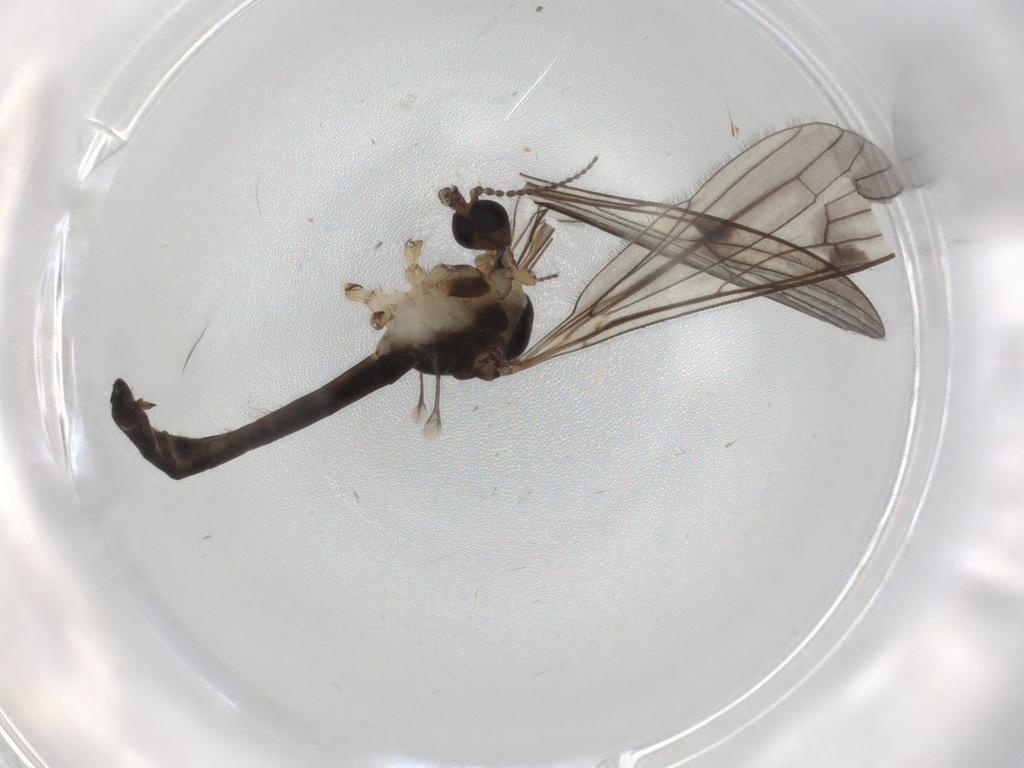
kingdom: Animalia
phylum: Arthropoda
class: Insecta
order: Diptera
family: Limoniidae
